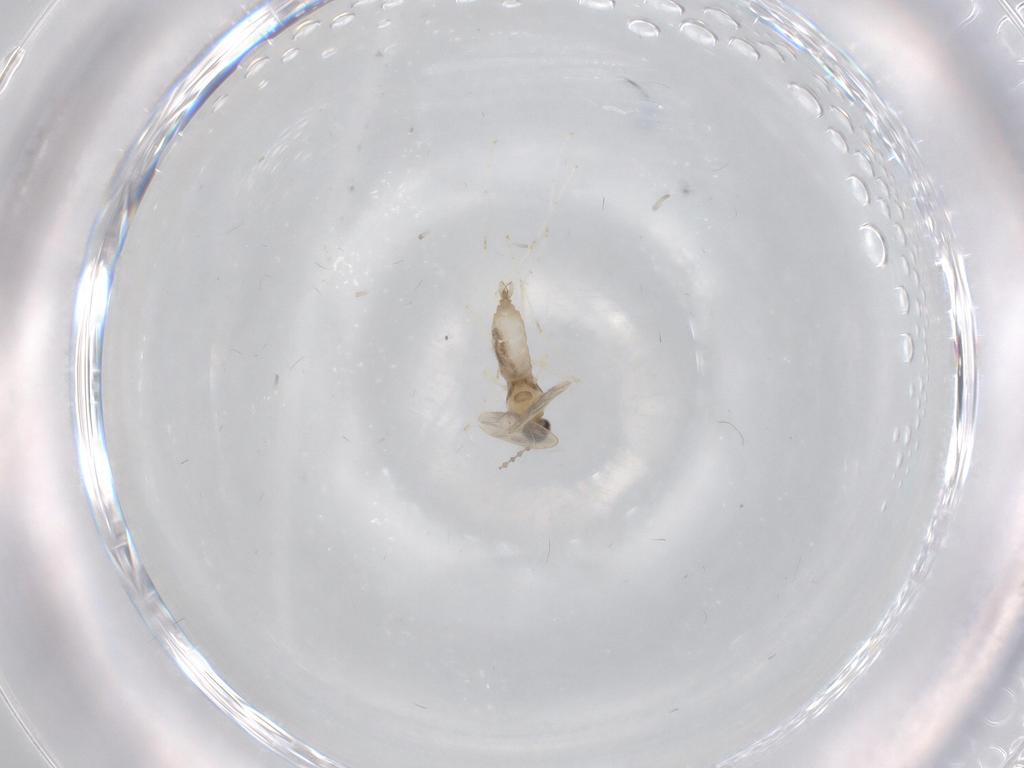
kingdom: Animalia
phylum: Arthropoda
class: Insecta
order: Diptera
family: Cecidomyiidae
